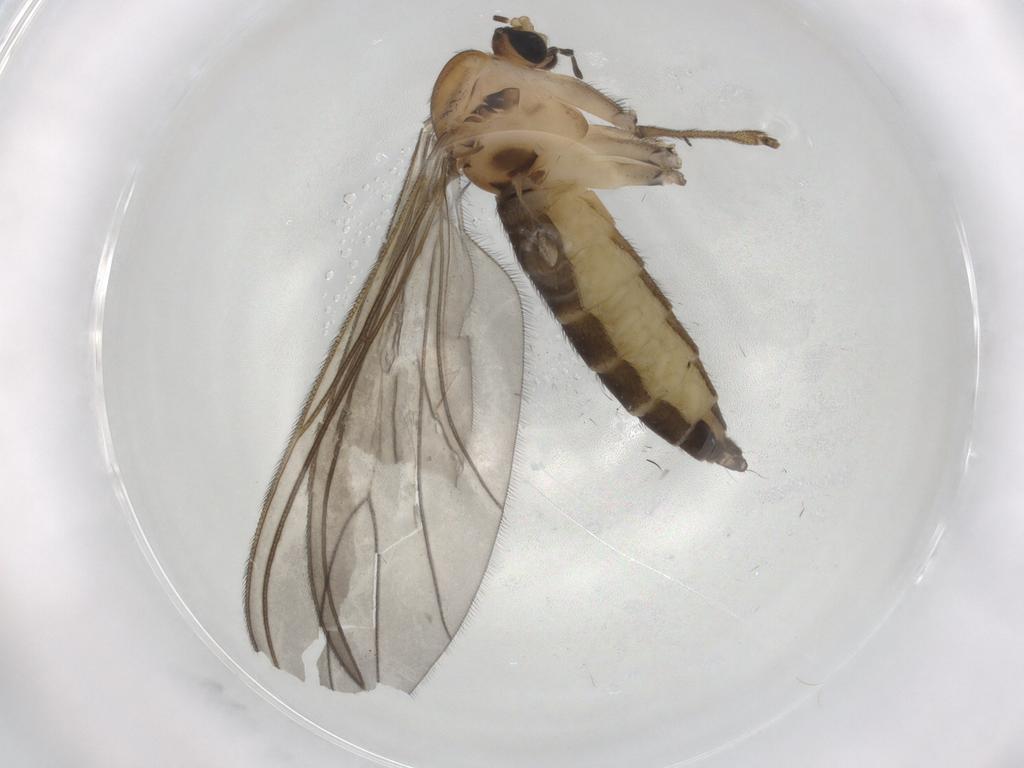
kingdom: Animalia
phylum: Arthropoda
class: Insecta
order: Diptera
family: Sciaridae
